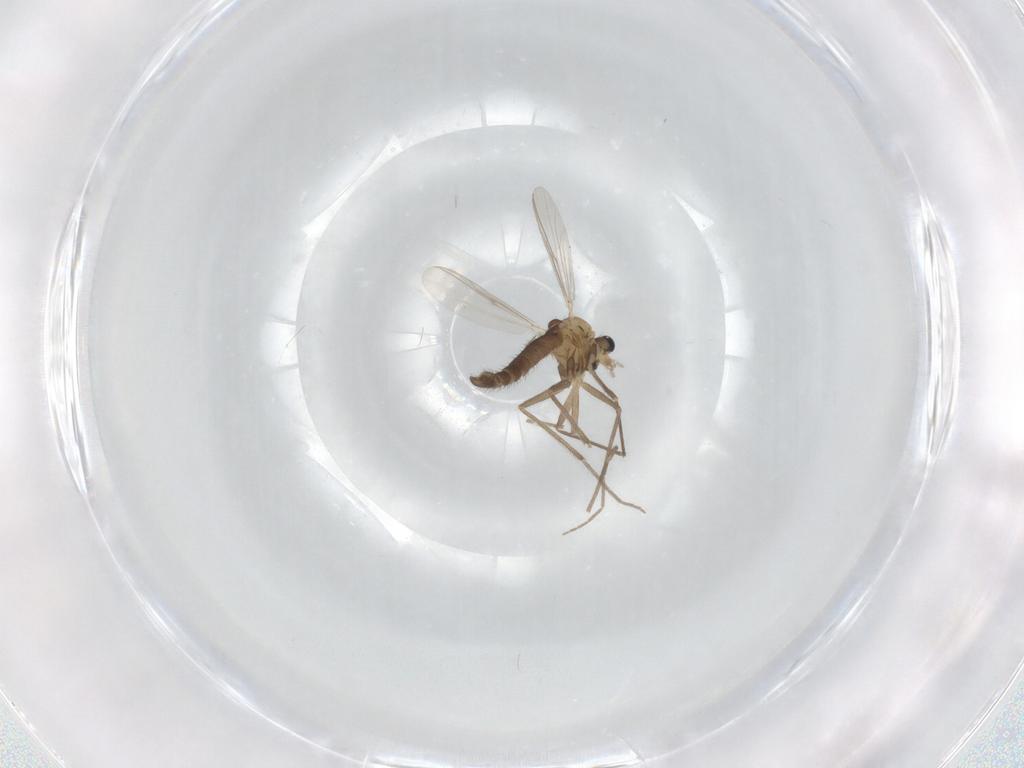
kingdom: Animalia
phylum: Arthropoda
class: Insecta
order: Diptera
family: Chironomidae
